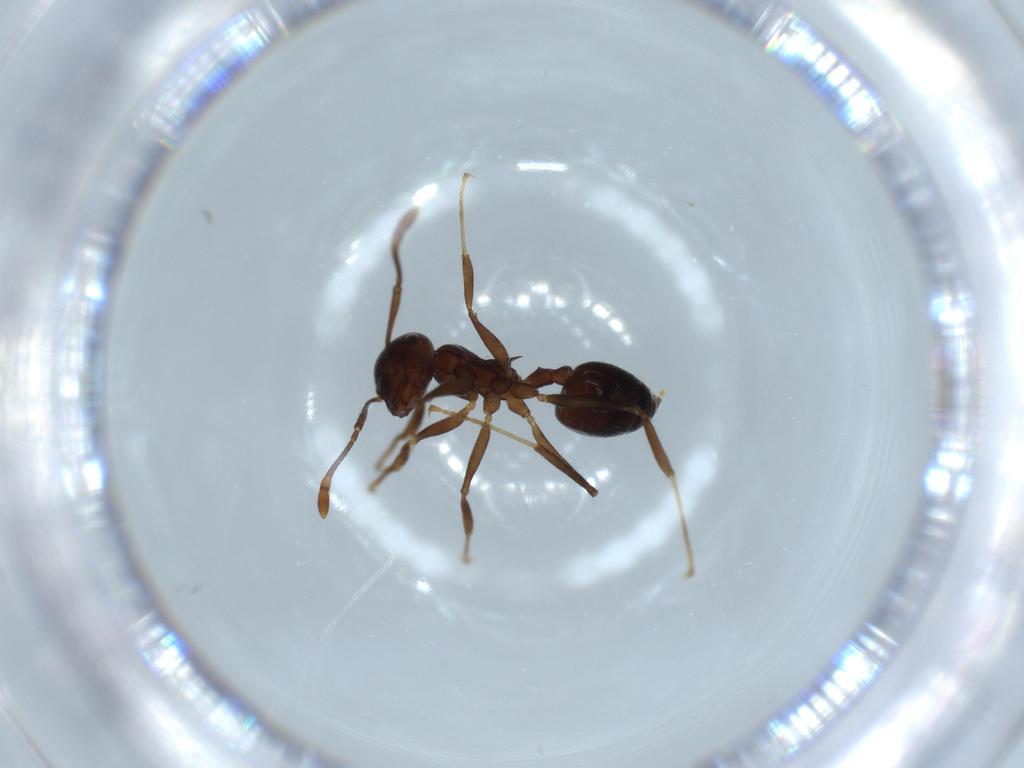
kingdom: Animalia
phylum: Arthropoda
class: Insecta
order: Hymenoptera
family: Formicidae
